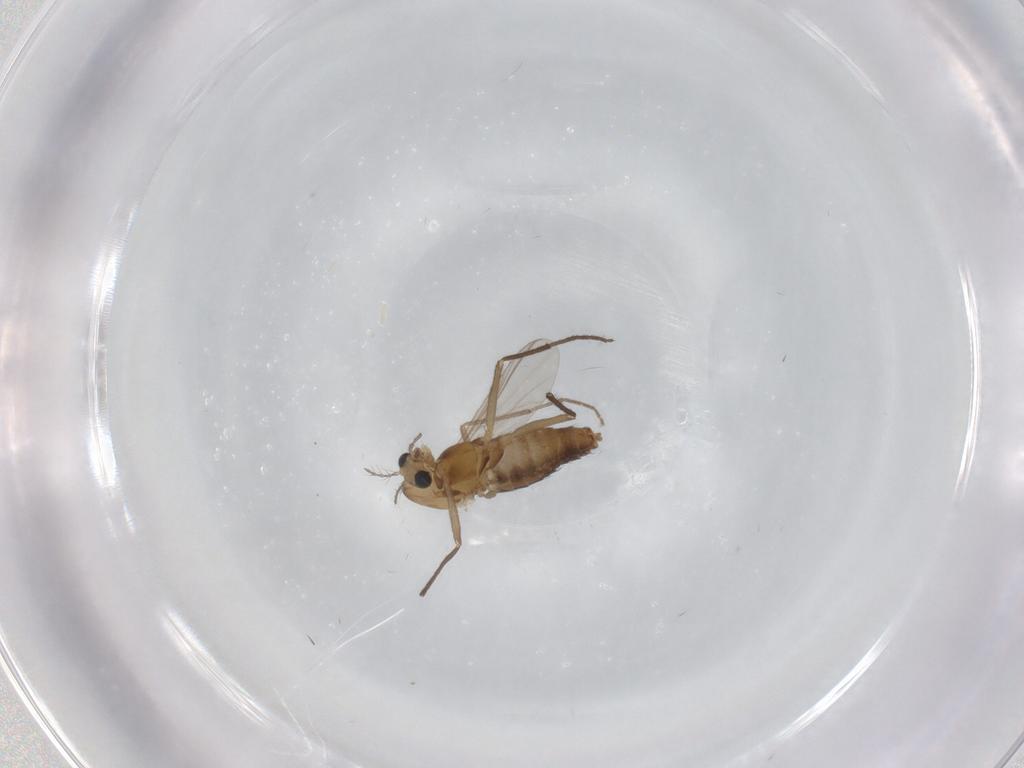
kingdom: Animalia
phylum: Arthropoda
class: Insecta
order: Diptera
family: Chironomidae
